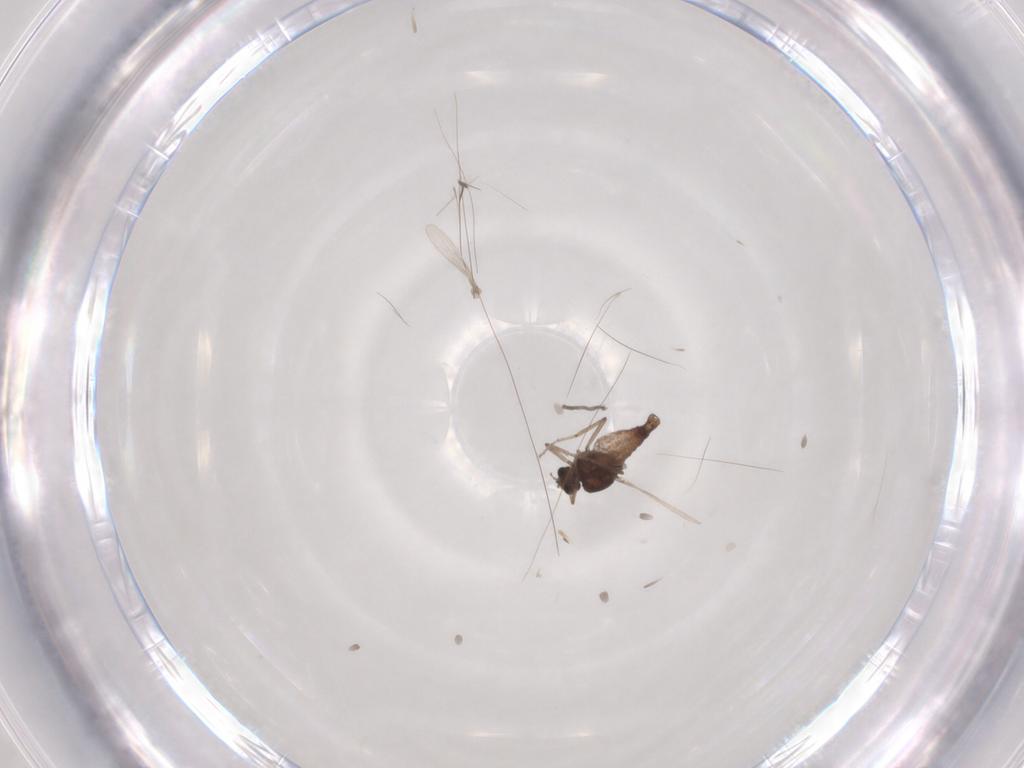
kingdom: Animalia
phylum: Arthropoda
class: Insecta
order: Diptera
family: Ceratopogonidae
